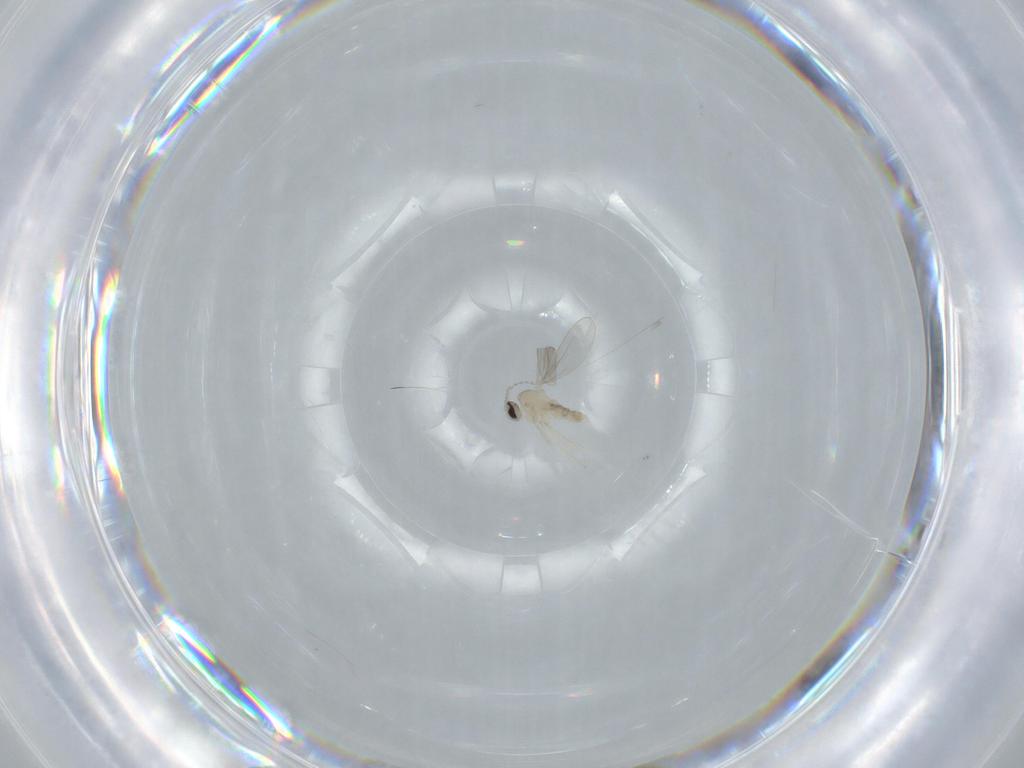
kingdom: Animalia
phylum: Arthropoda
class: Insecta
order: Diptera
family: Cecidomyiidae
